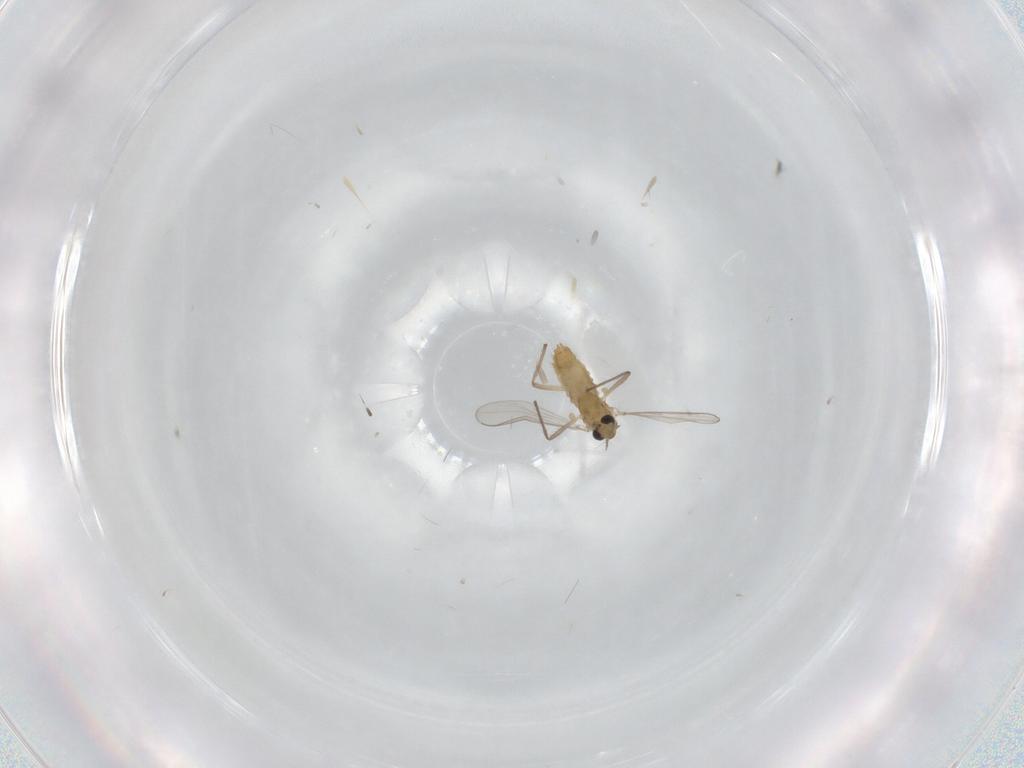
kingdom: Animalia
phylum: Arthropoda
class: Insecta
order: Diptera
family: Chironomidae
